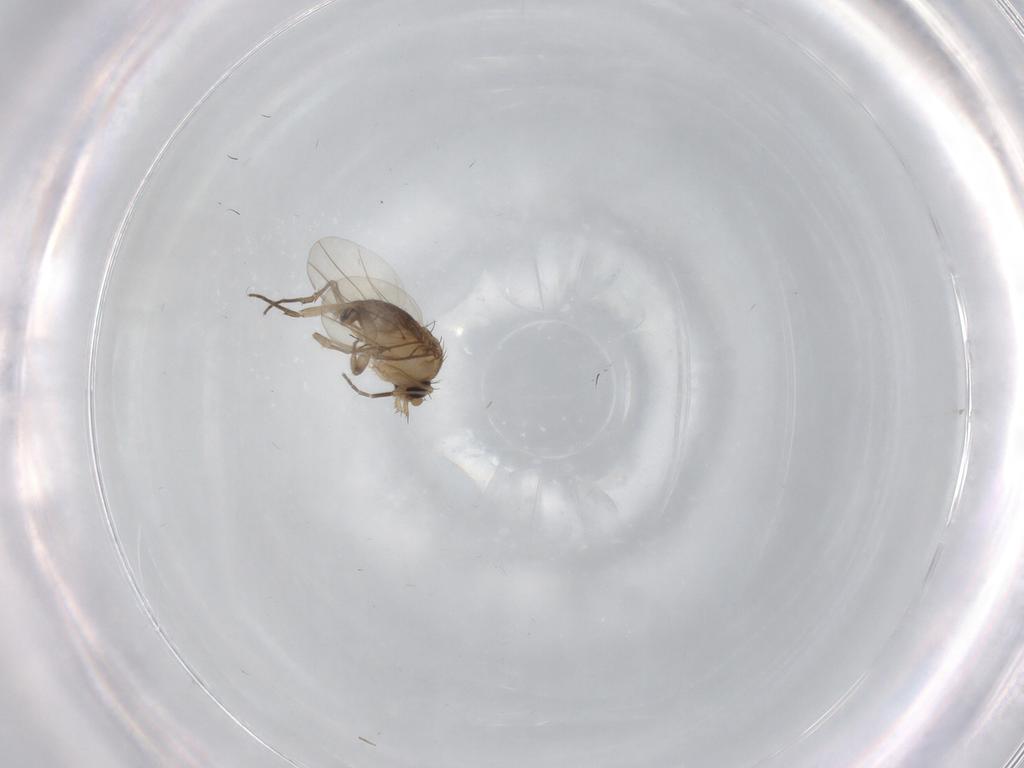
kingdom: Animalia
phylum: Arthropoda
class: Insecta
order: Diptera
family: Phoridae
